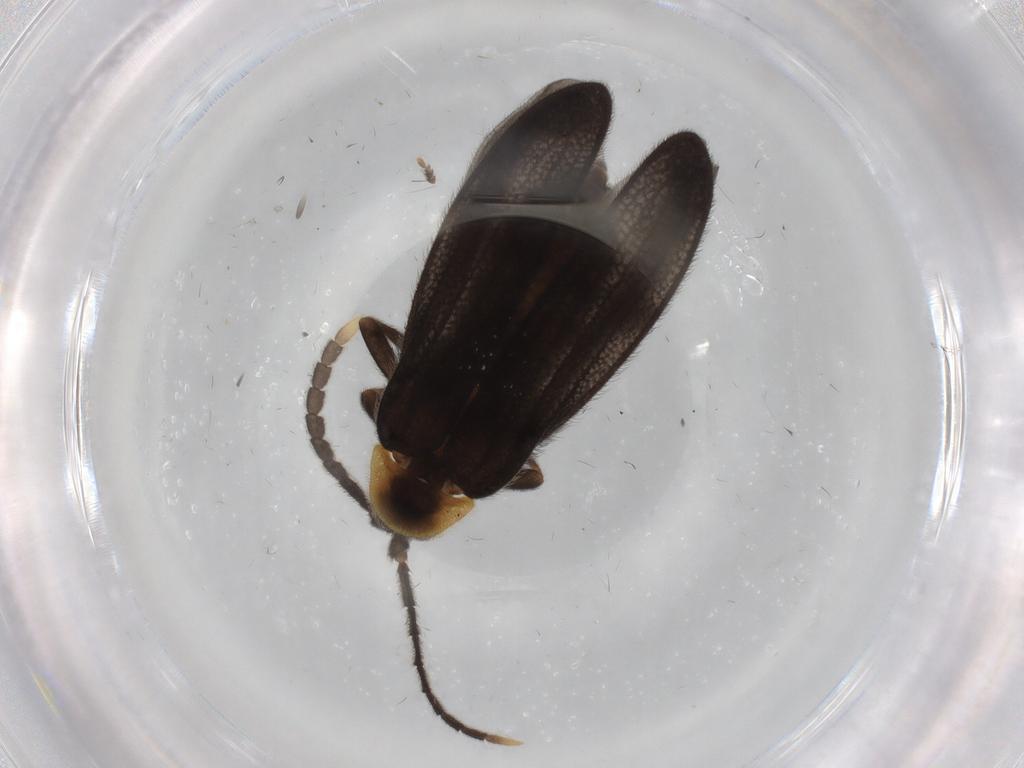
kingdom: Animalia
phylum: Arthropoda
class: Insecta
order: Coleoptera
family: Lycidae
